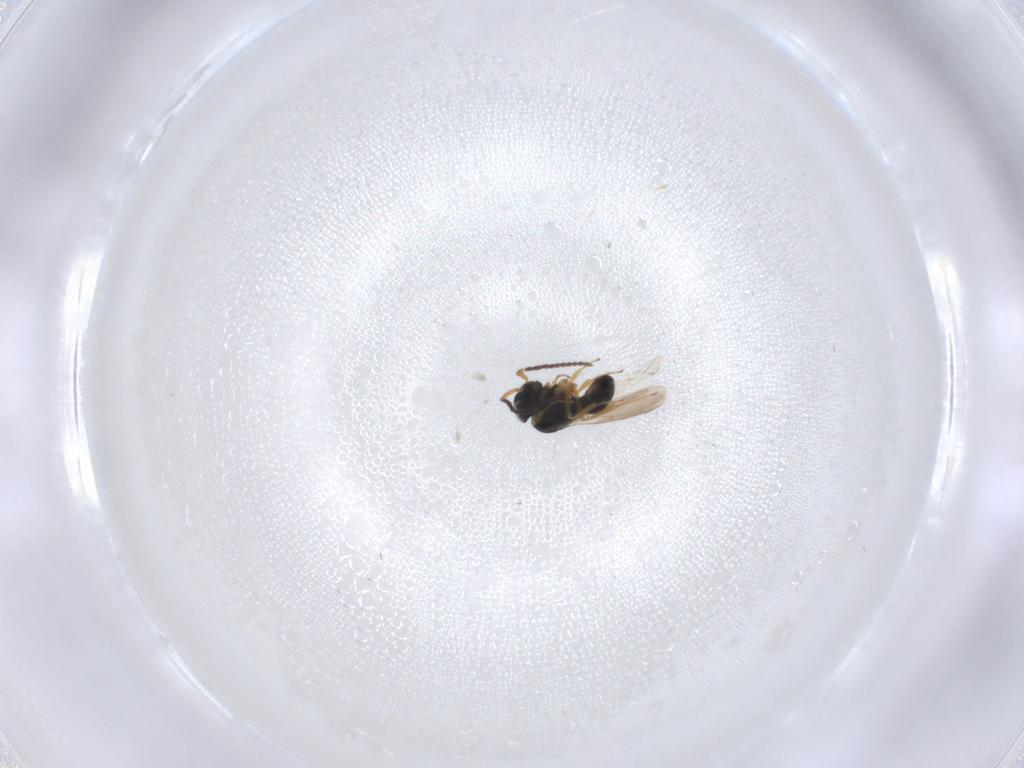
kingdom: Animalia
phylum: Arthropoda
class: Insecta
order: Hymenoptera
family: Scelionidae
